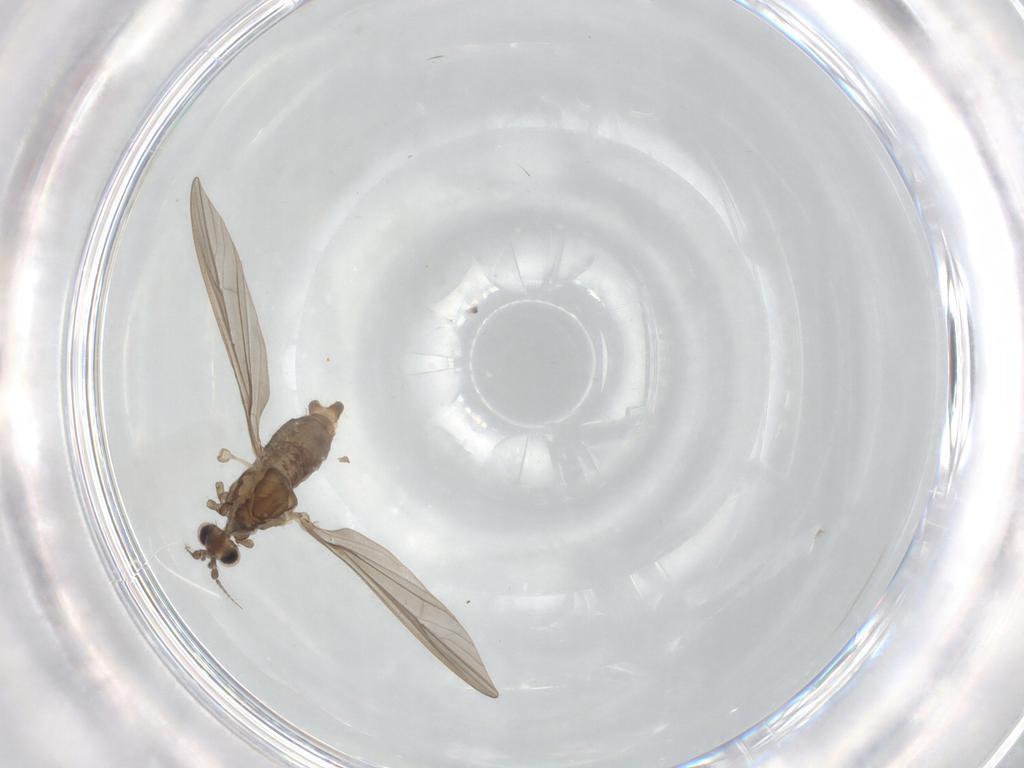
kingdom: Animalia
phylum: Arthropoda
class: Insecta
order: Diptera
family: Limoniidae
